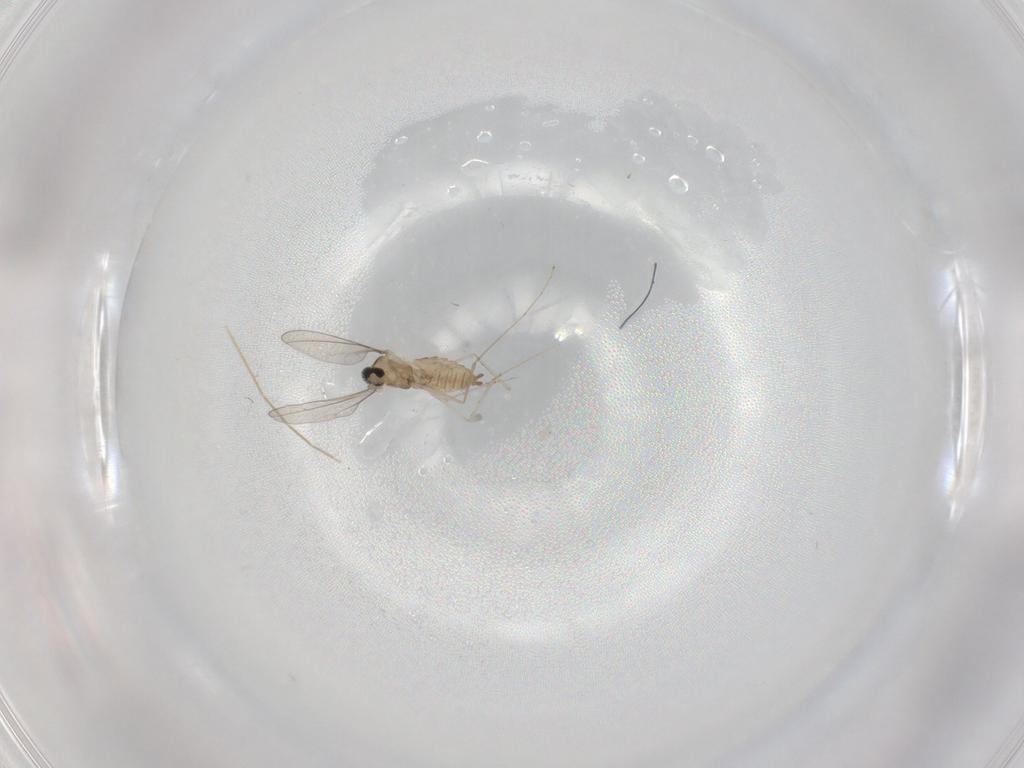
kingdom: Animalia
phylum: Arthropoda
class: Insecta
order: Diptera
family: Cecidomyiidae
